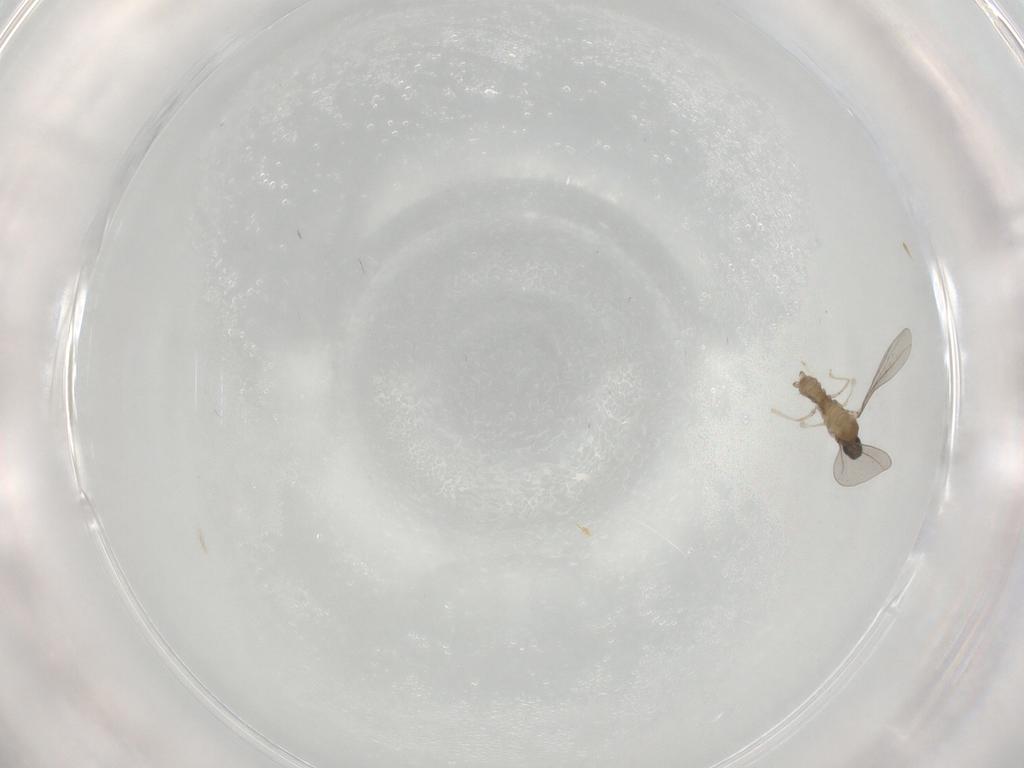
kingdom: Animalia
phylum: Arthropoda
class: Insecta
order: Diptera
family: Cecidomyiidae
